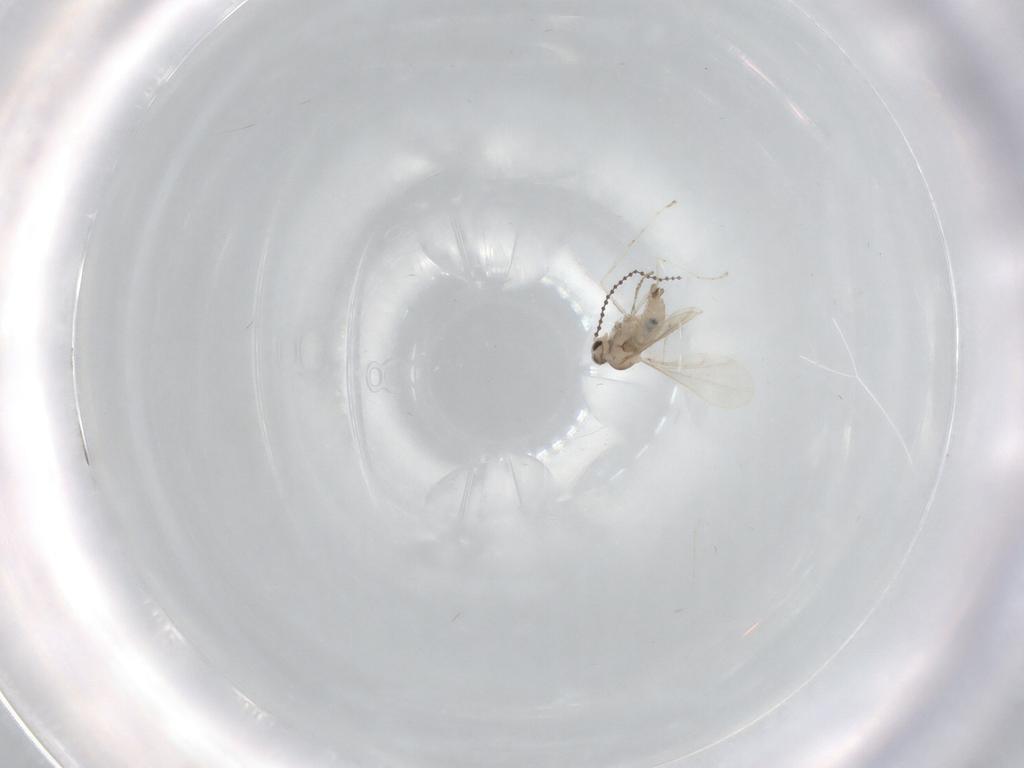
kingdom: Animalia
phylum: Arthropoda
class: Insecta
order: Diptera
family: Cecidomyiidae
